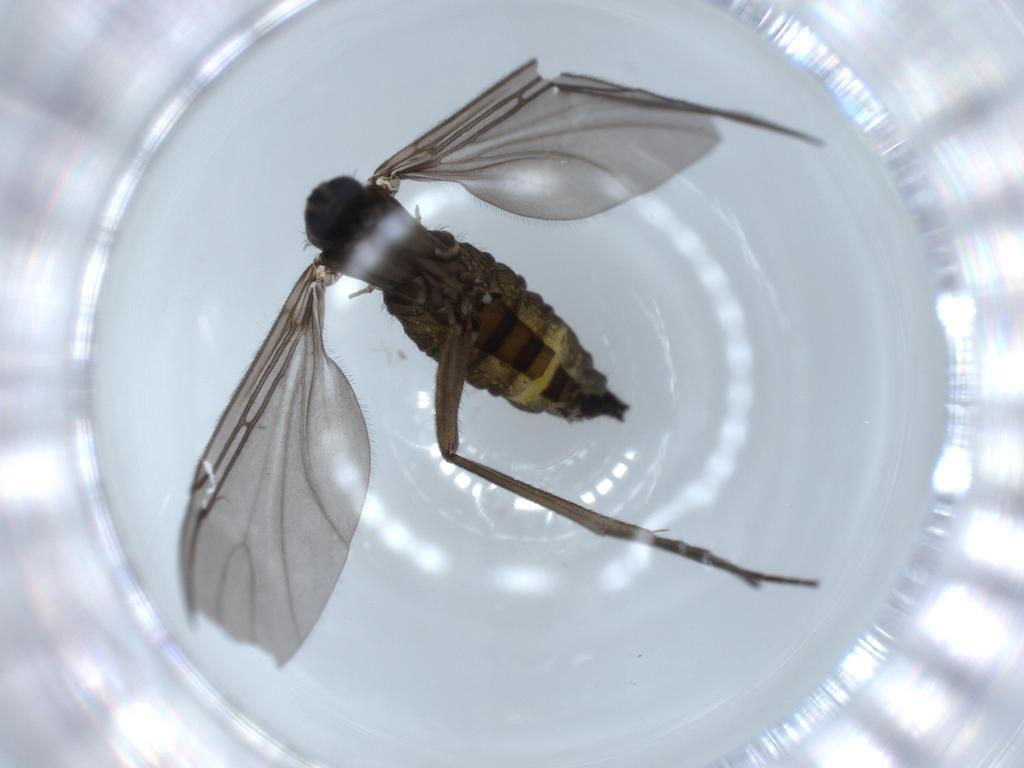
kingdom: Animalia
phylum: Arthropoda
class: Insecta
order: Diptera
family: Sciaridae
